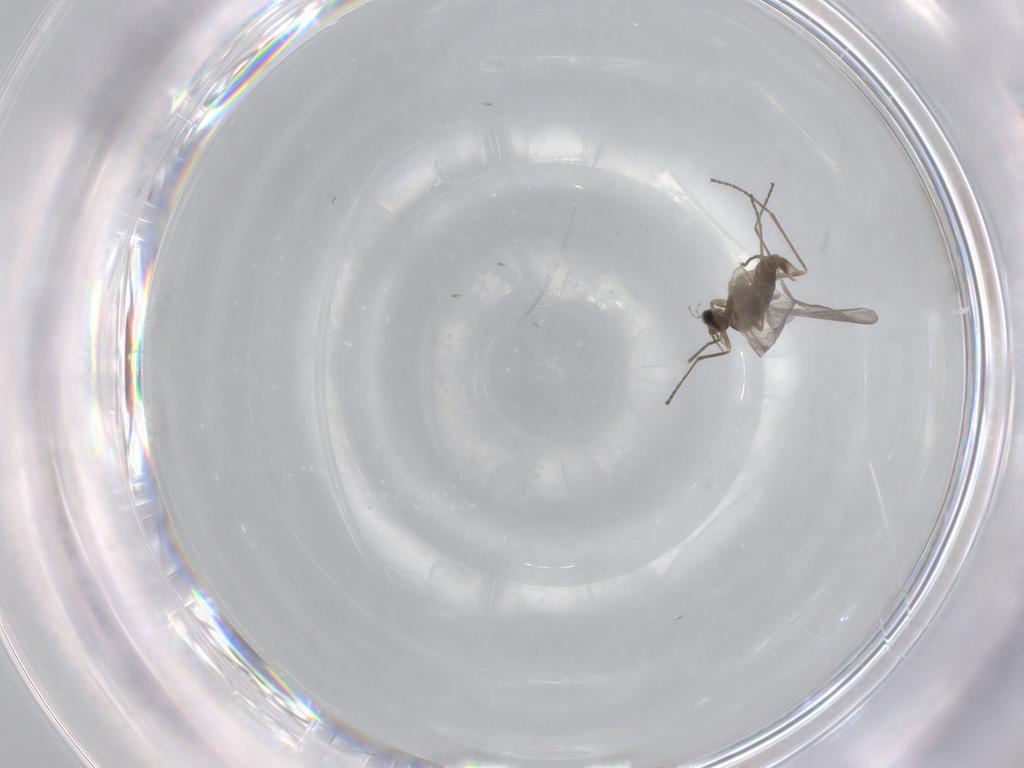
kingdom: Animalia
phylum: Arthropoda
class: Insecta
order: Diptera
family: Cecidomyiidae
